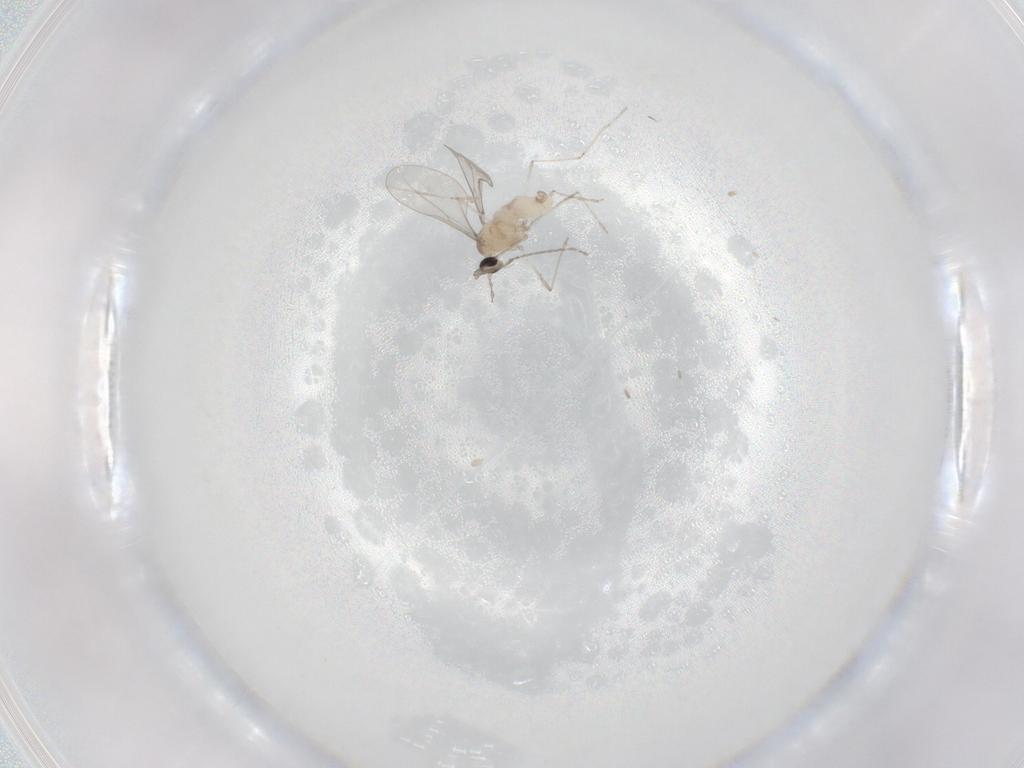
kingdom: Animalia
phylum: Arthropoda
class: Insecta
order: Diptera
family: Cecidomyiidae
